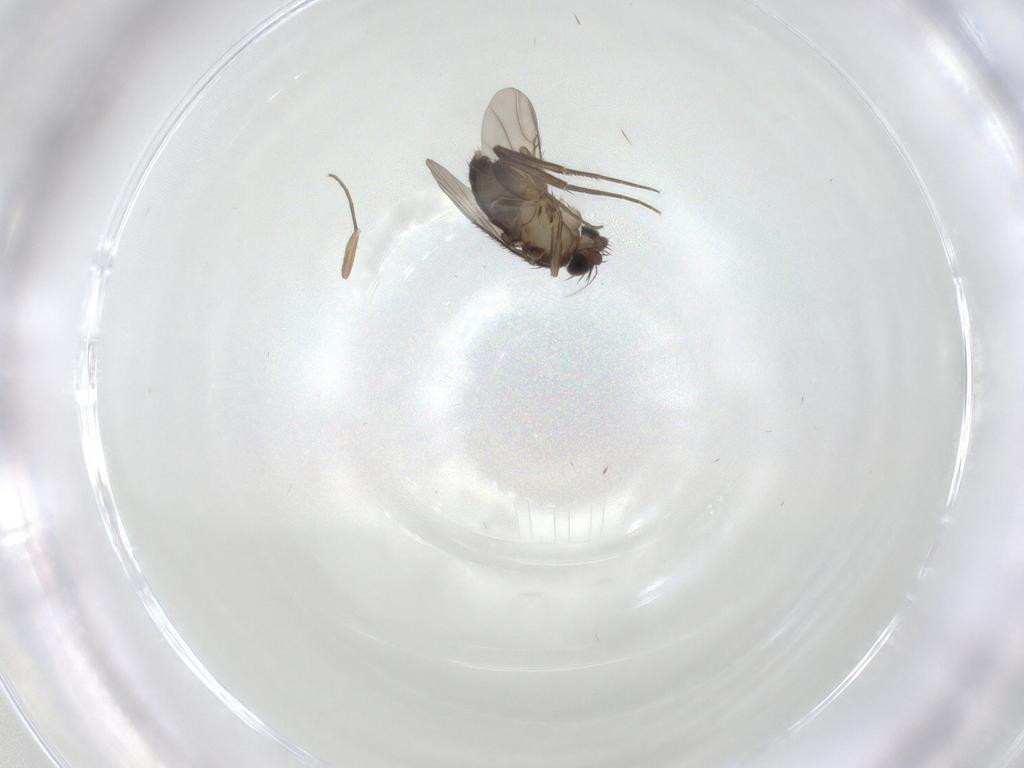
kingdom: Animalia
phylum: Arthropoda
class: Insecta
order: Diptera
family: Phoridae
